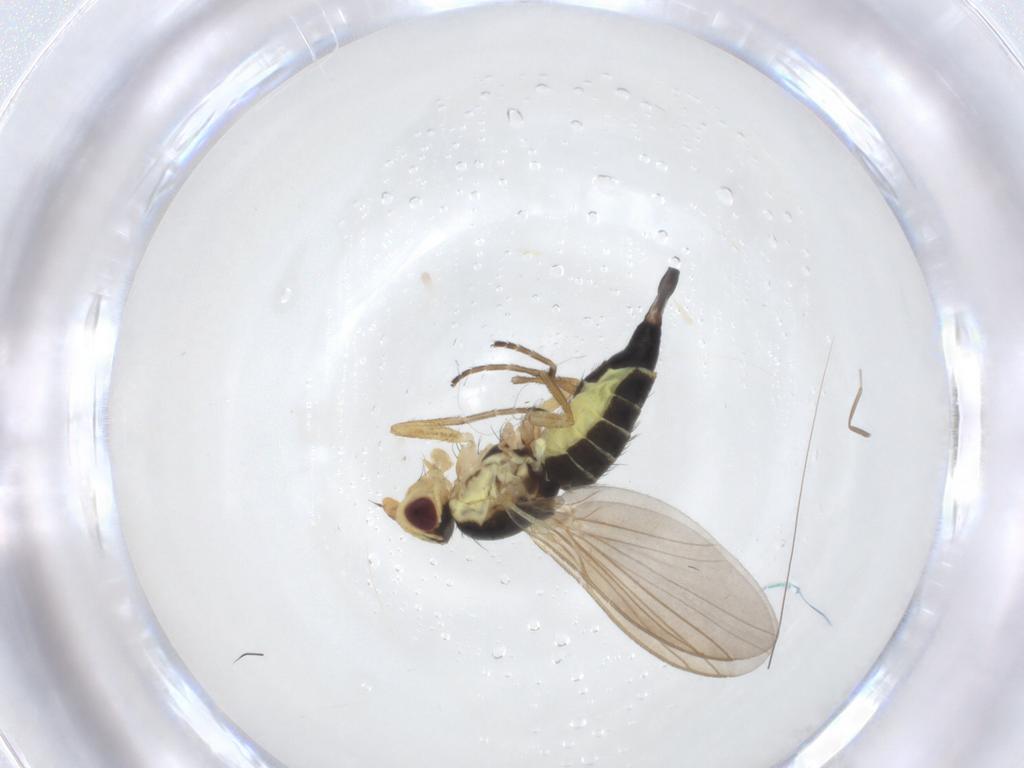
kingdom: Animalia
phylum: Arthropoda
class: Insecta
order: Diptera
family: Agromyzidae
